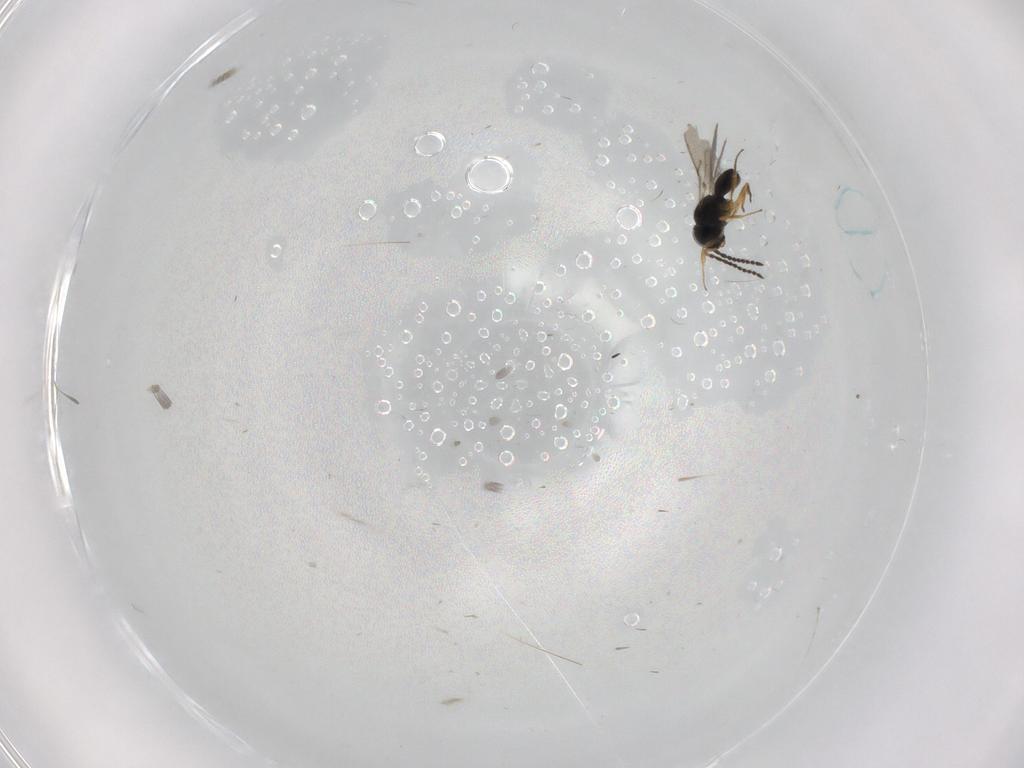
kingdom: Animalia
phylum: Arthropoda
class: Insecta
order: Hymenoptera
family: Scelionidae
